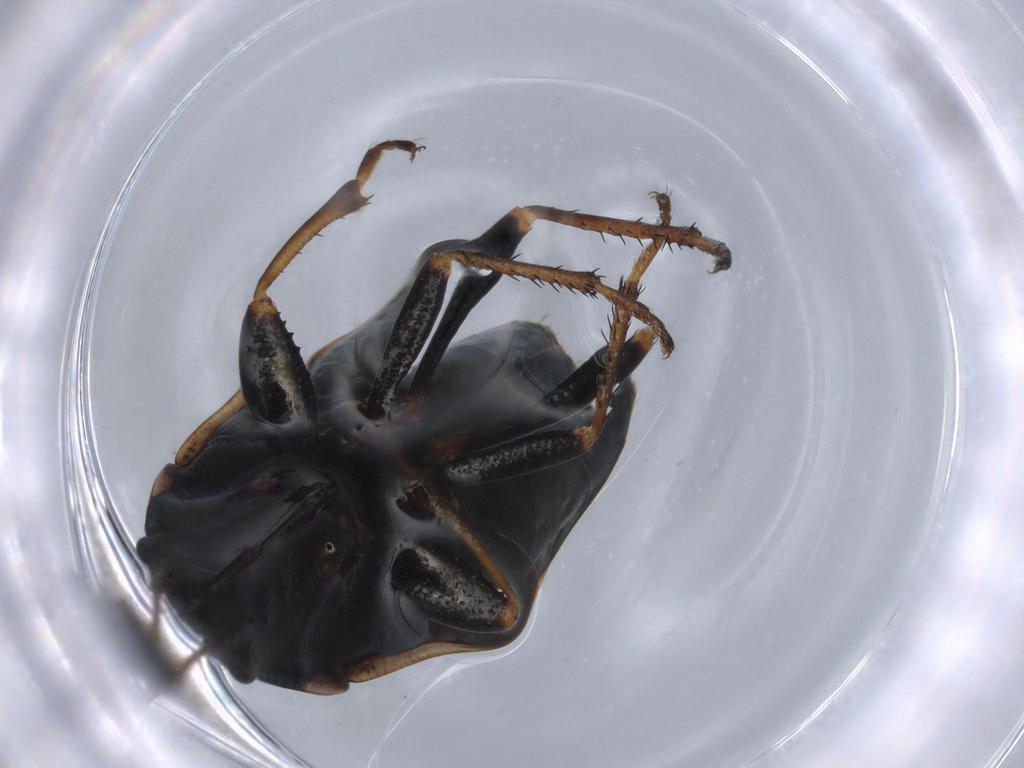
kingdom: Animalia
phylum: Arthropoda
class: Insecta
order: Hemiptera
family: Rhyparochromidae
